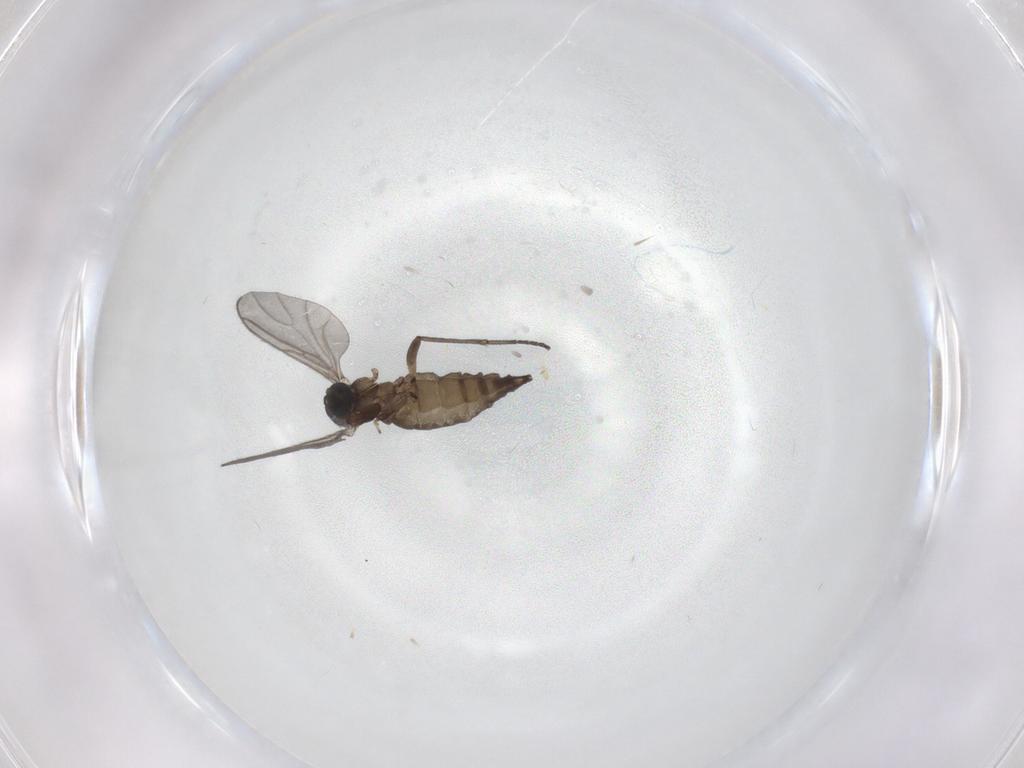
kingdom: Animalia
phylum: Arthropoda
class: Insecta
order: Diptera
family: Sciaridae
